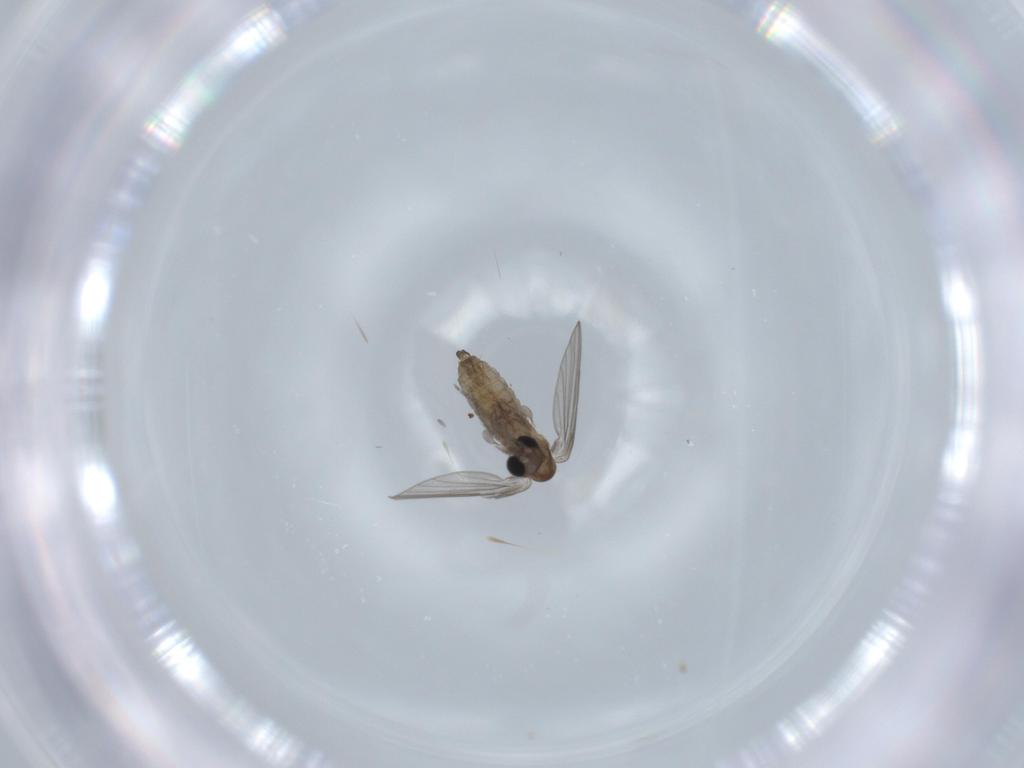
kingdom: Animalia
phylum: Arthropoda
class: Insecta
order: Diptera
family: Psychodidae
